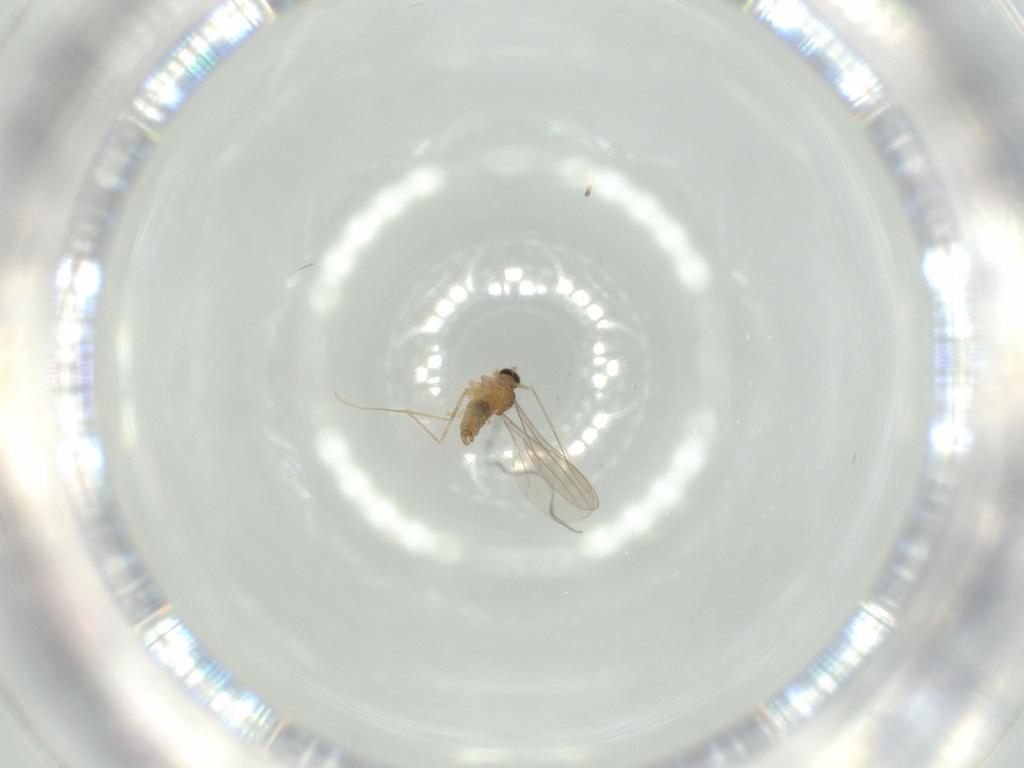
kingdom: Animalia
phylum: Arthropoda
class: Insecta
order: Diptera
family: Cecidomyiidae
